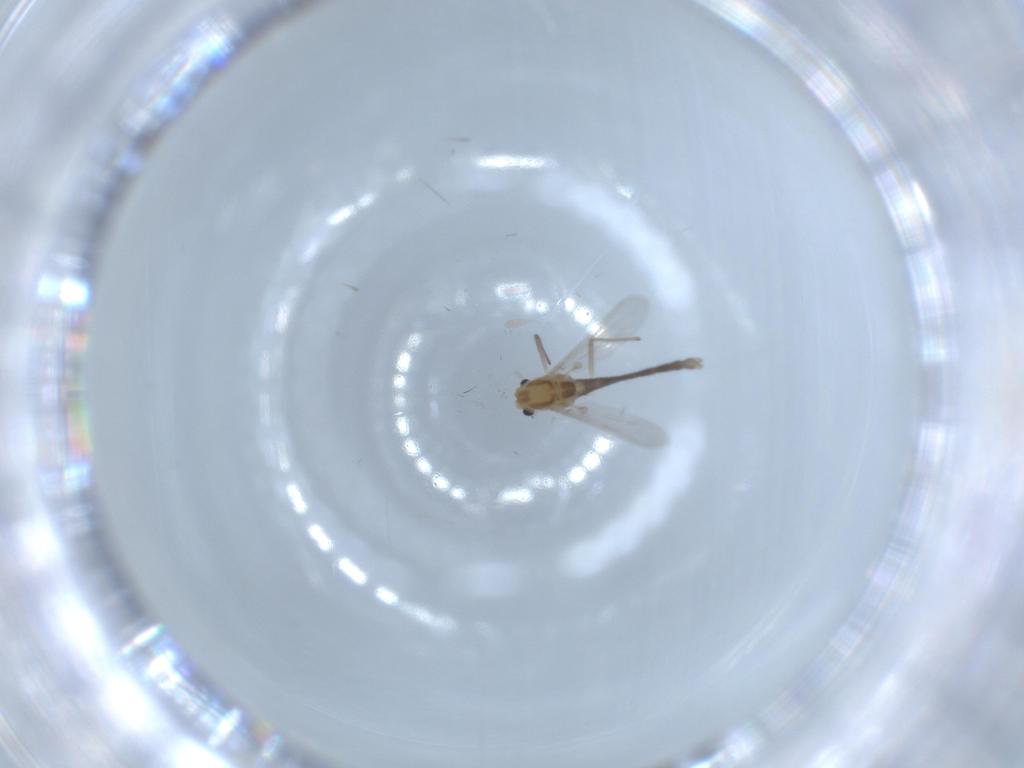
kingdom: Animalia
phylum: Arthropoda
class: Insecta
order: Diptera
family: Chironomidae
